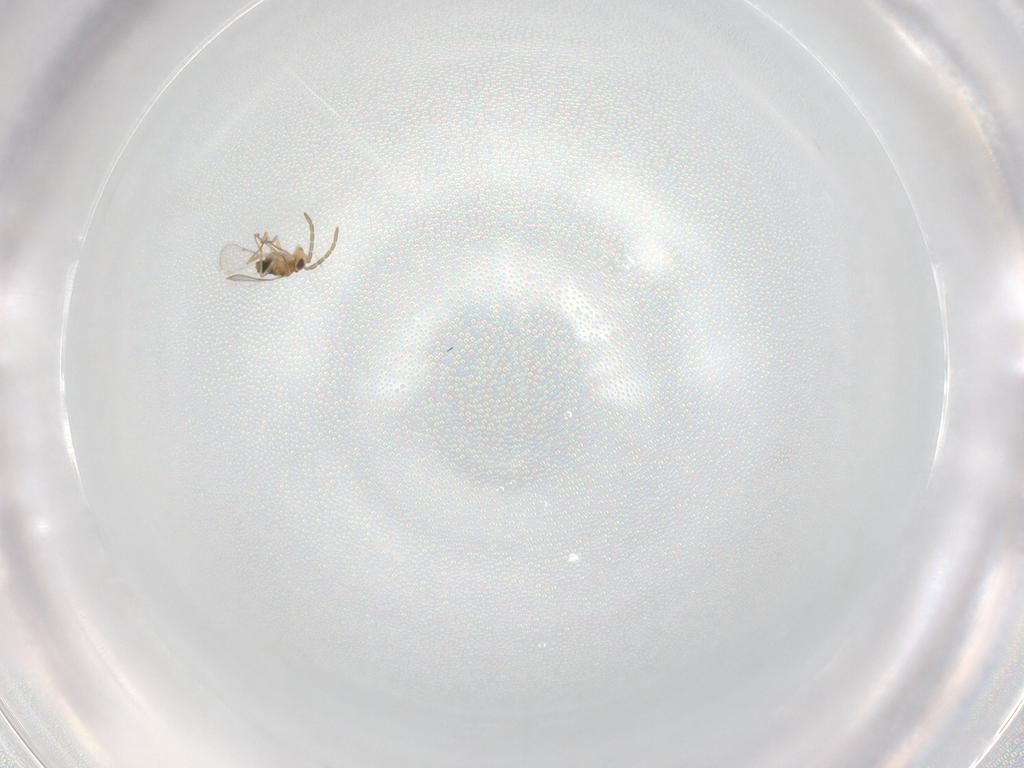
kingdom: Animalia
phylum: Arthropoda
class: Insecta
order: Hymenoptera
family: Aphelinidae
